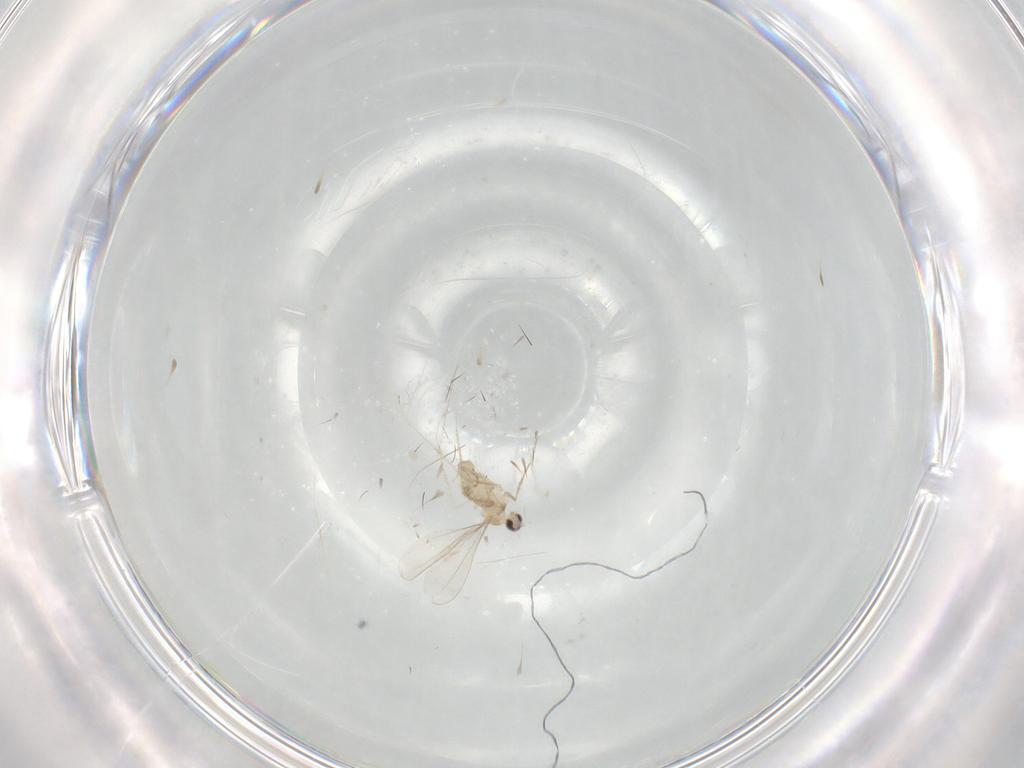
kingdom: Animalia
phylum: Arthropoda
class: Insecta
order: Diptera
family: Cecidomyiidae
